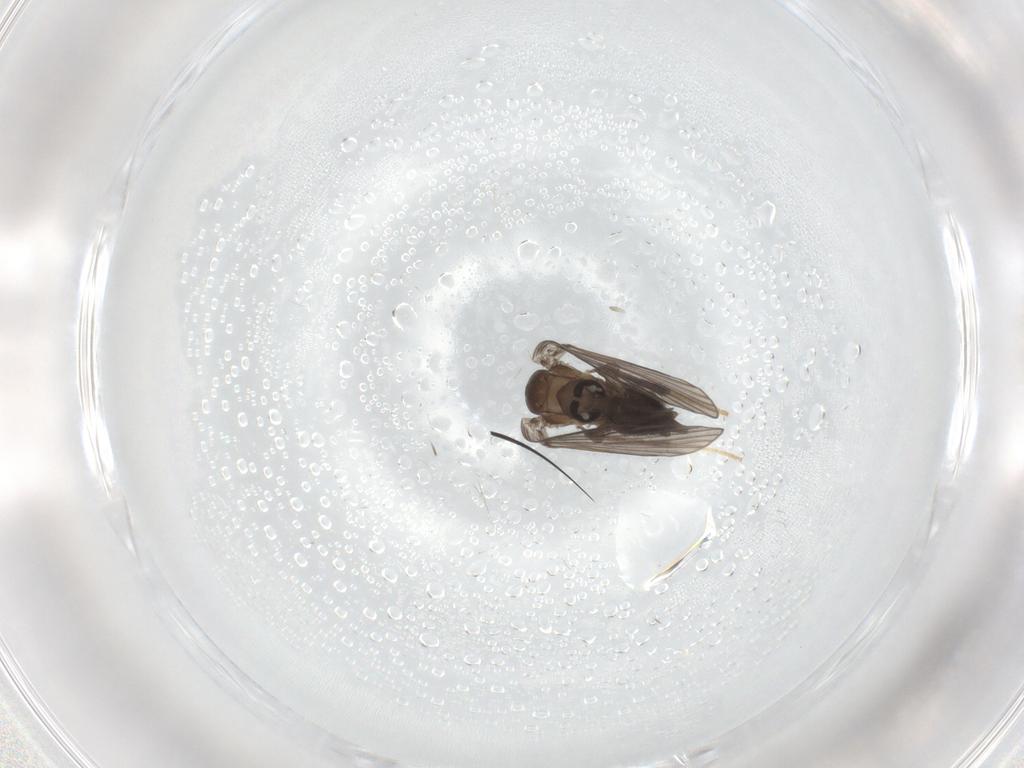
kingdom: Animalia
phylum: Arthropoda
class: Insecta
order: Diptera
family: Psychodidae
